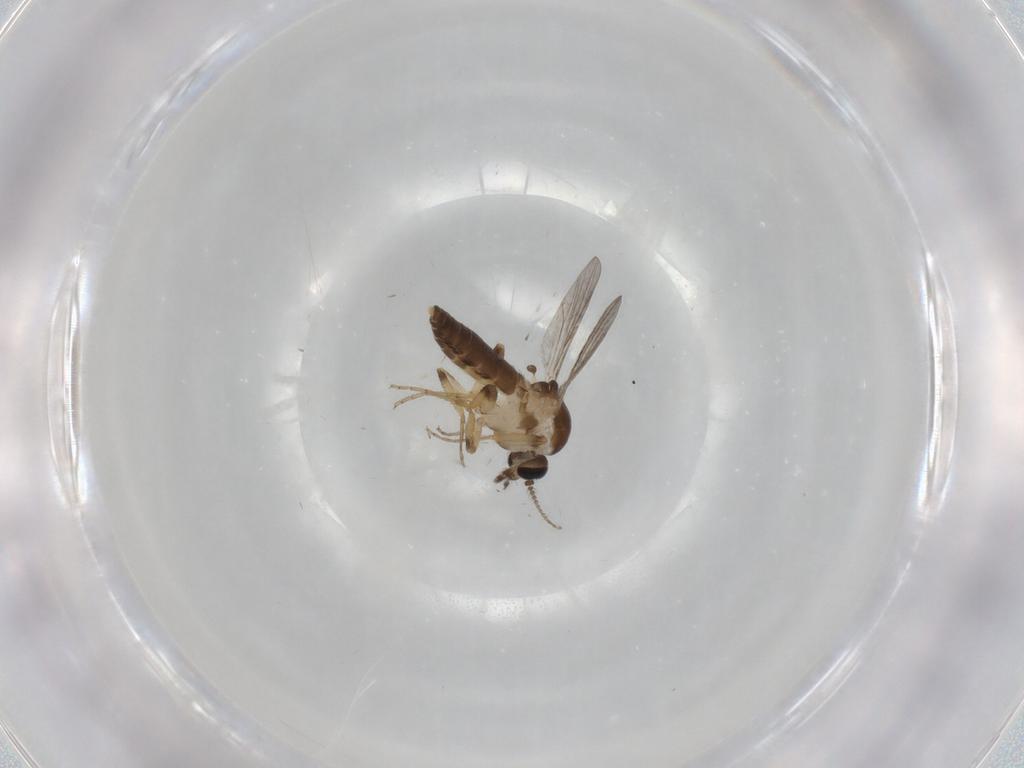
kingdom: Animalia
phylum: Arthropoda
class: Insecta
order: Diptera
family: Ceratopogonidae
